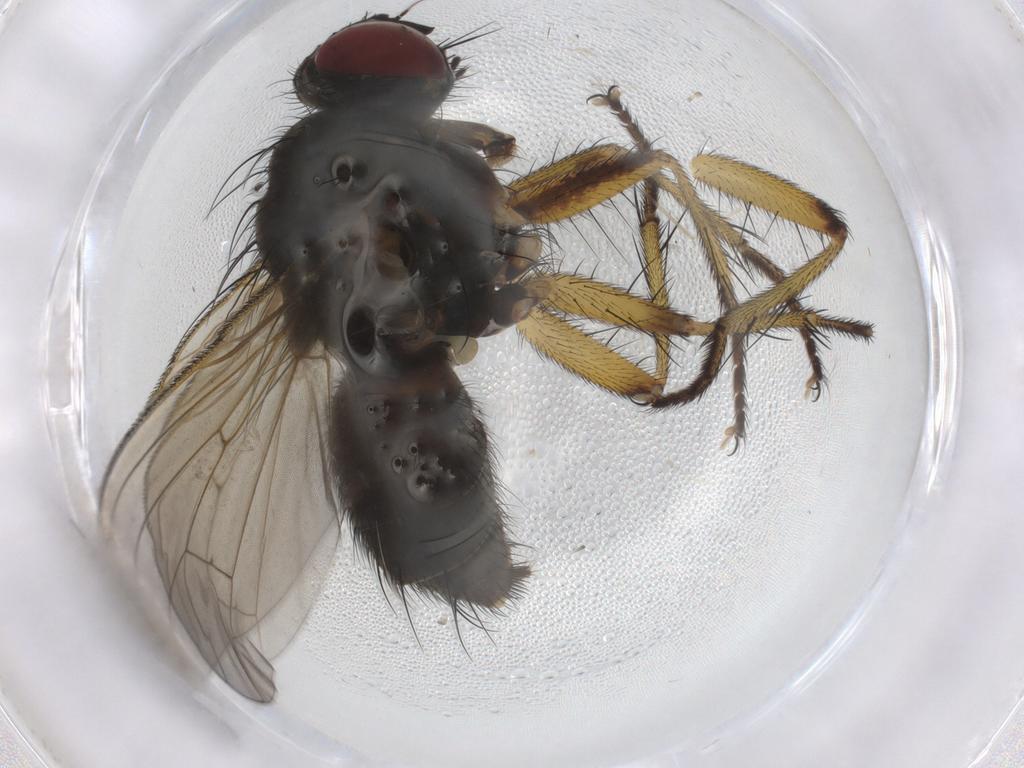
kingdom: Animalia
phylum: Arthropoda
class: Insecta
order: Diptera
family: Muscidae
